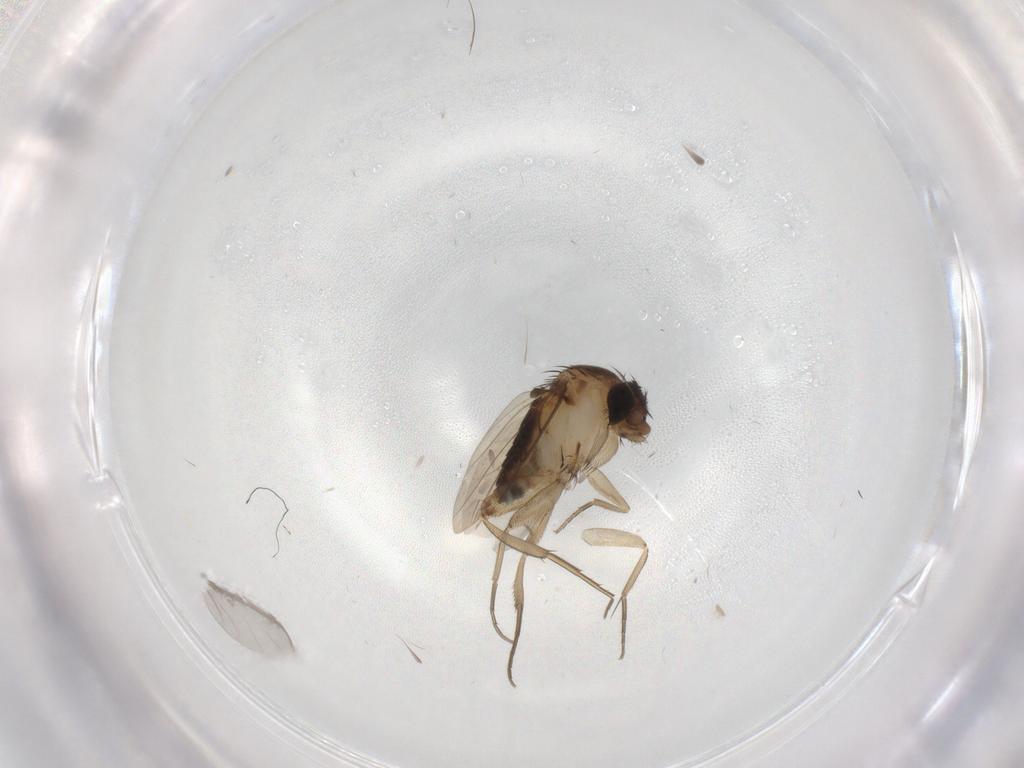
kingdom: Animalia
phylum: Arthropoda
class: Insecta
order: Diptera
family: Phoridae
